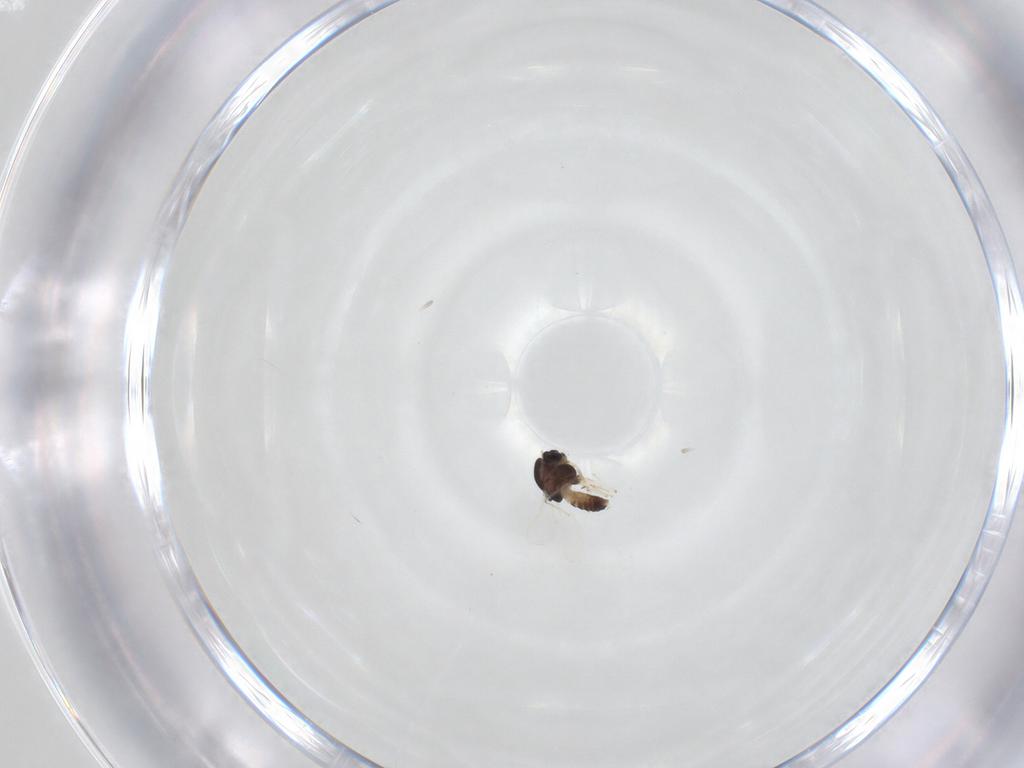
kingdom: Animalia
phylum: Arthropoda
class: Insecta
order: Diptera
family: Chironomidae
